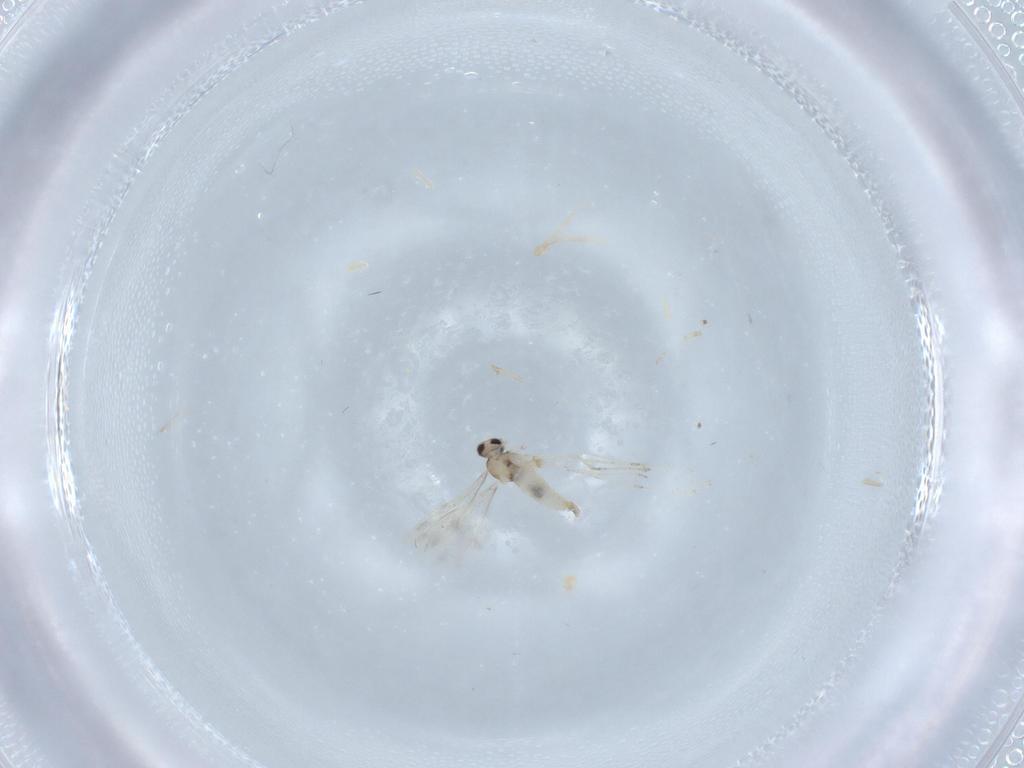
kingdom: Animalia
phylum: Arthropoda
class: Insecta
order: Diptera
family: Cecidomyiidae
